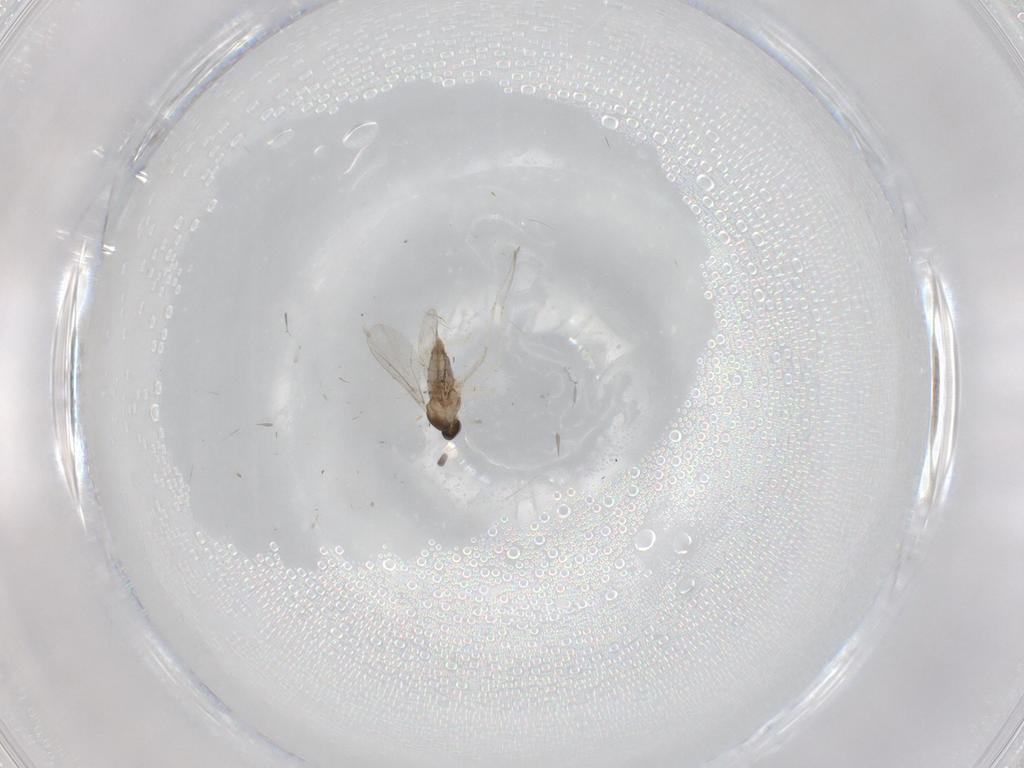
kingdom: Animalia
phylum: Arthropoda
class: Insecta
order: Diptera
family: Cecidomyiidae
